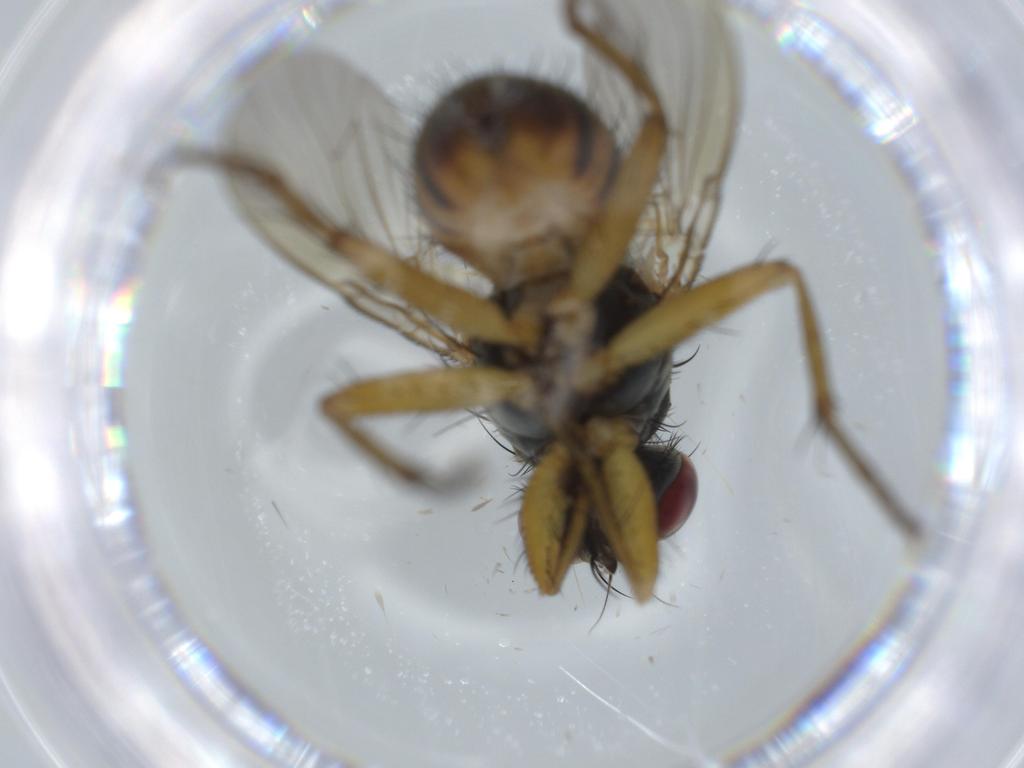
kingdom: Animalia
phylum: Arthropoda
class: Insecta
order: Diptera
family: Muscidae
